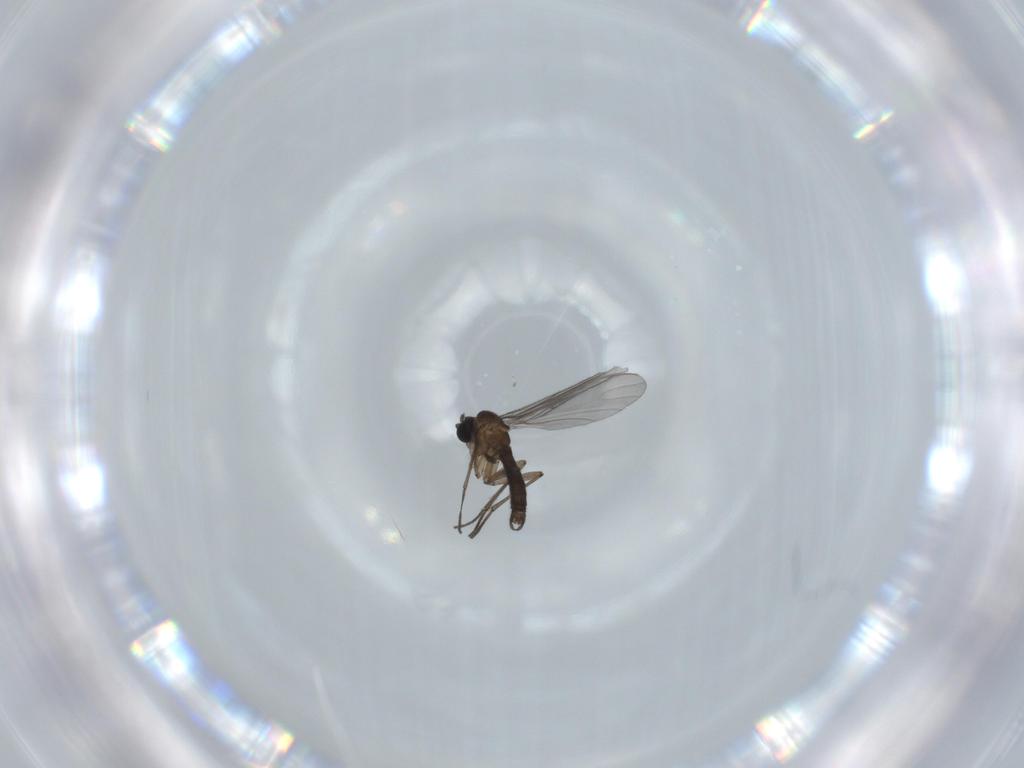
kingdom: Animalia
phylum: Arthropoda
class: Insecta
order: Diptera
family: Sciaridae
